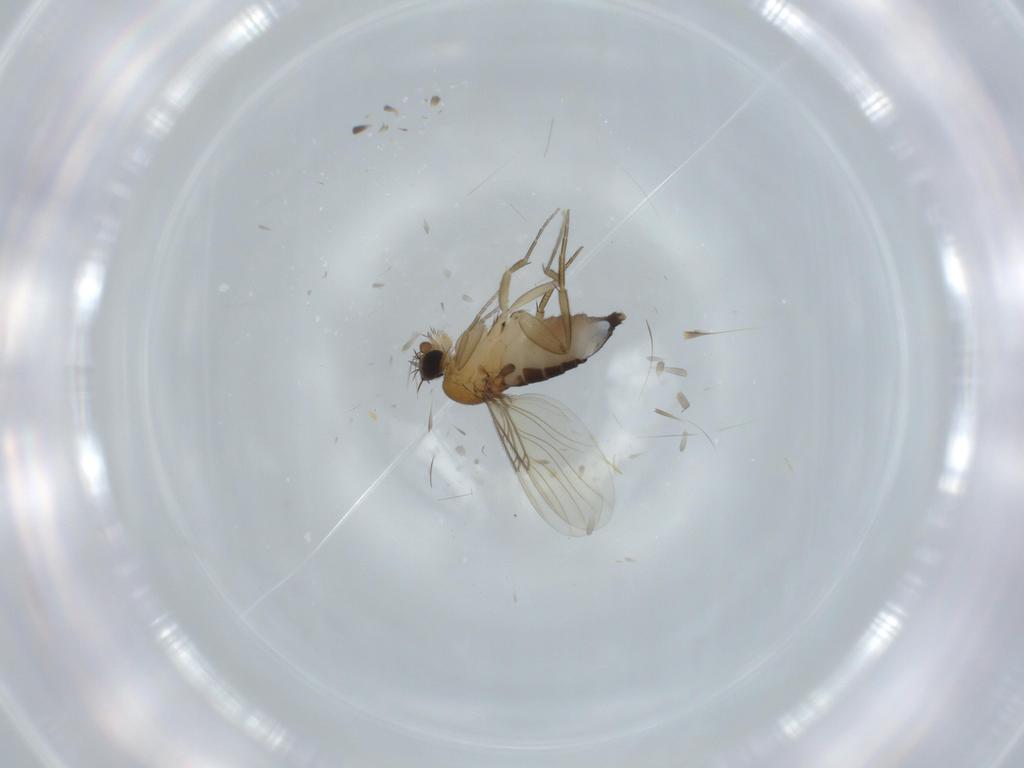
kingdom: Animalia
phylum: Arthropoda
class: Insecta
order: Diptera
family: Phoridae
